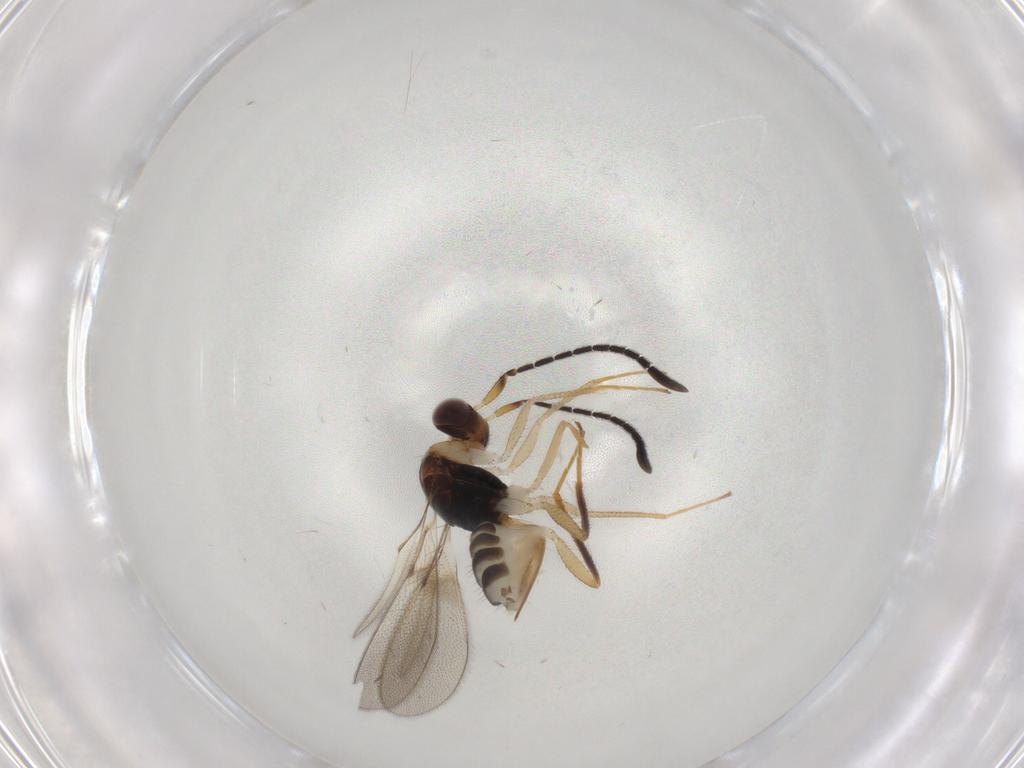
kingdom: Animalia
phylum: Arthropoda
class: Insecta
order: Hymenoptera
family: Mymaridae
